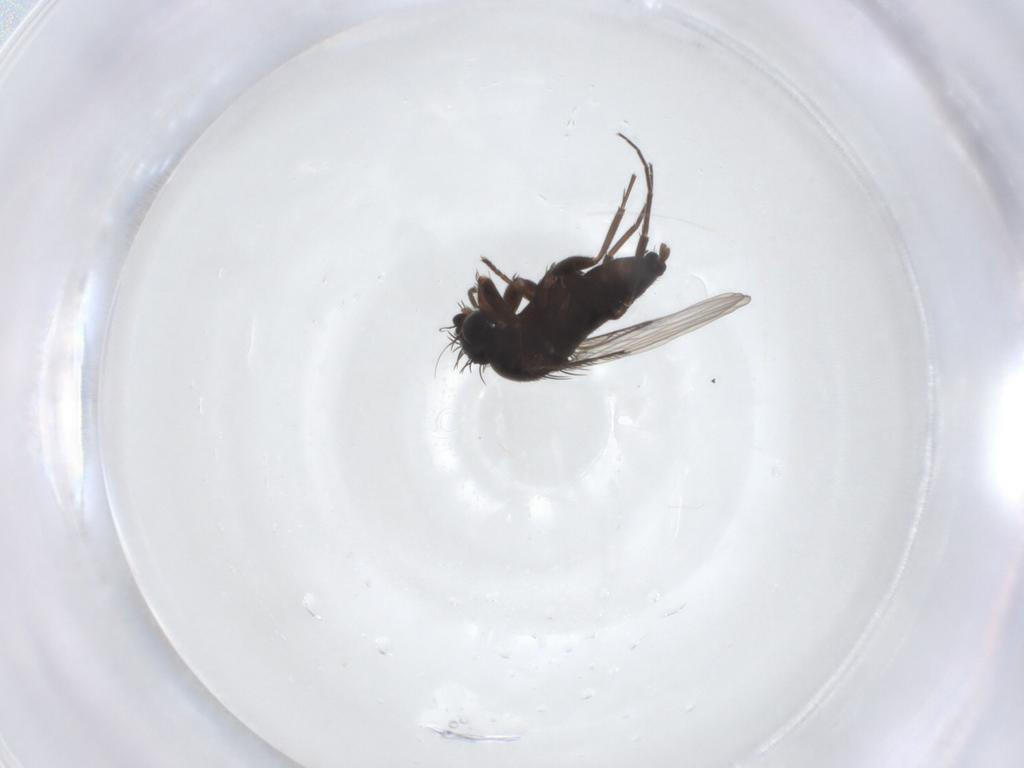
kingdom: Animalia
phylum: Arthropoda
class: Insecta
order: Diptera
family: Phoridae
